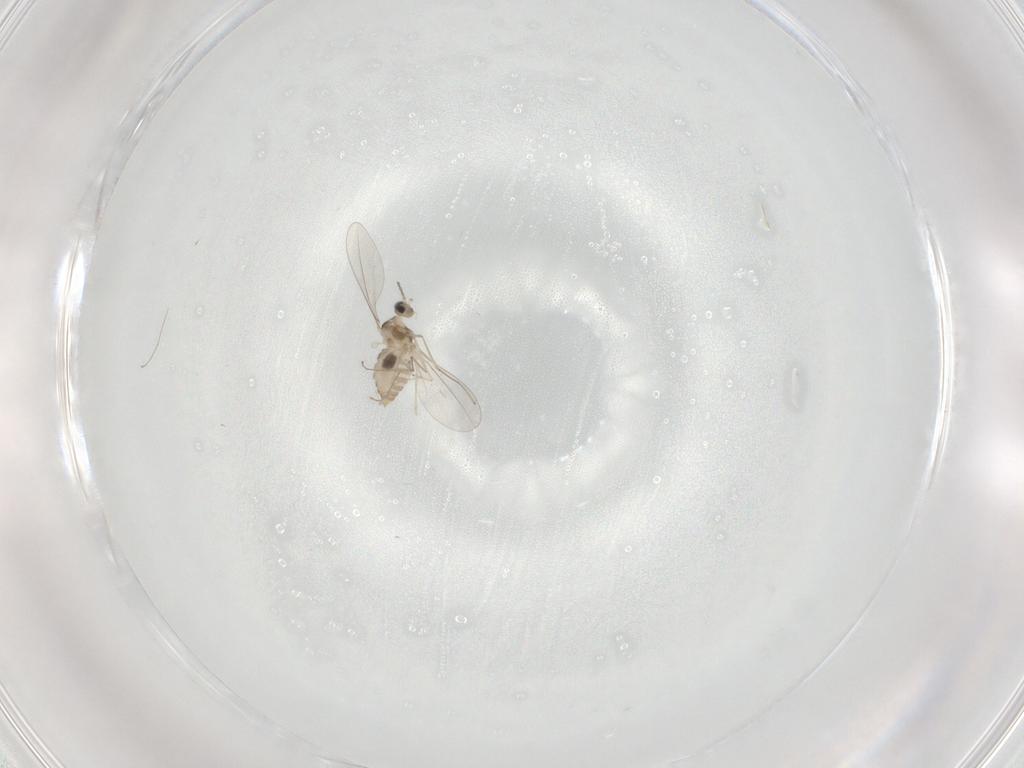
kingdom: Animalia
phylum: Arthropoda
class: Insecta
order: Diptera
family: Cecidomyiidae
